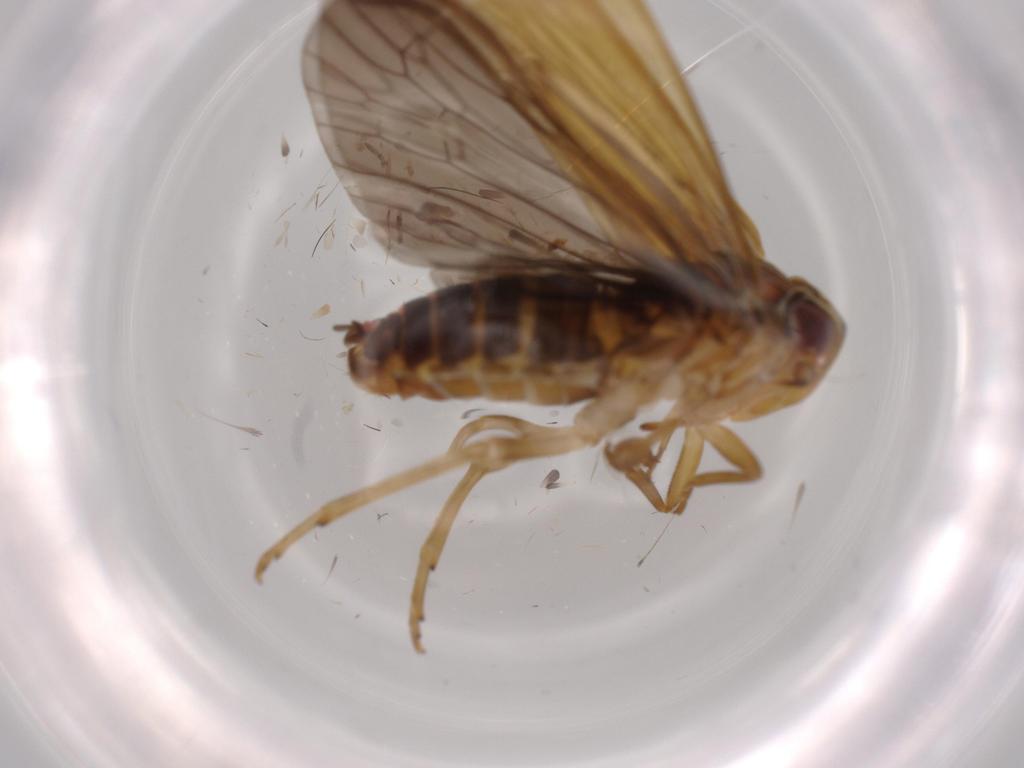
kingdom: Animalia
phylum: Arthropoda
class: Insecta
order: Hemiptera
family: Achilidae
